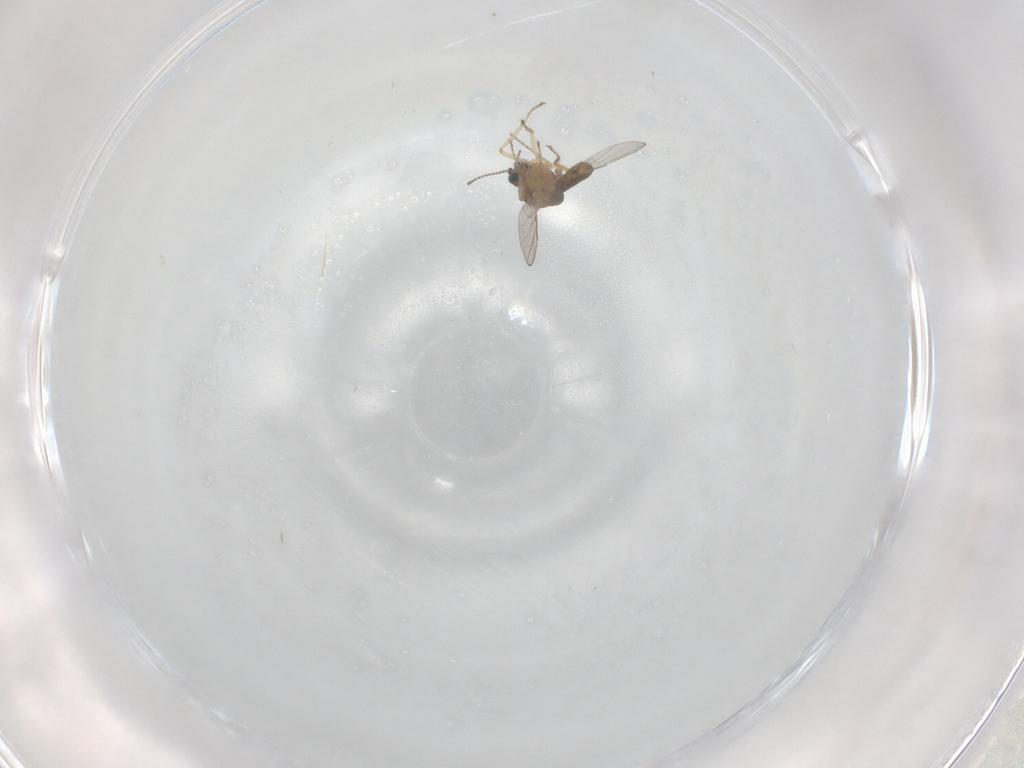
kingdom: Animalia
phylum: Arthropoda
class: Insecta
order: Diptera
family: Ceratopogonidae
